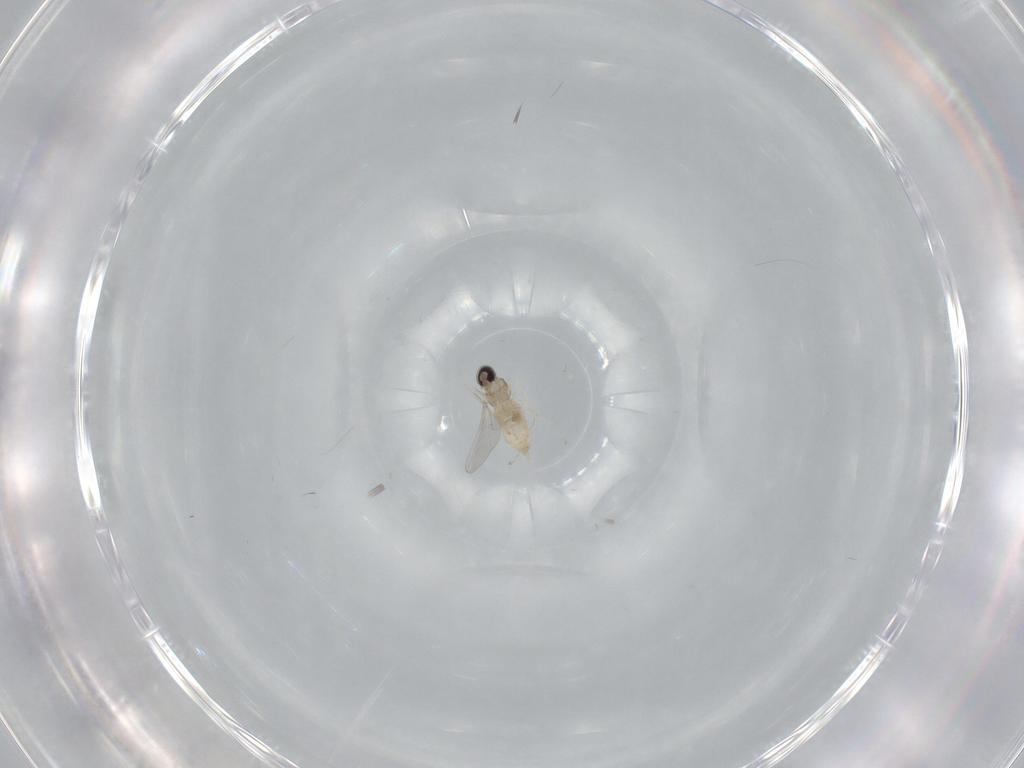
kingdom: Animalia
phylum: Arthropoda
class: Insecta
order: Diptera
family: Cecidomyiidae
